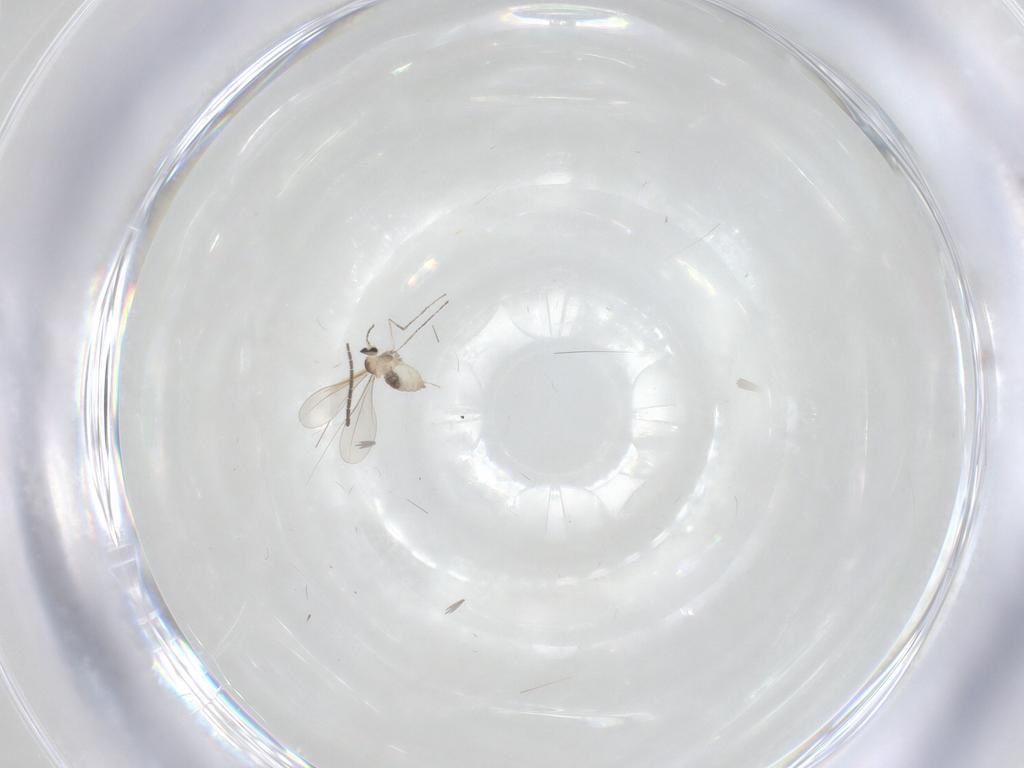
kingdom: Animalia
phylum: Arthropoda
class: Insecta
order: Diptera
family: Cecidomyiidae
